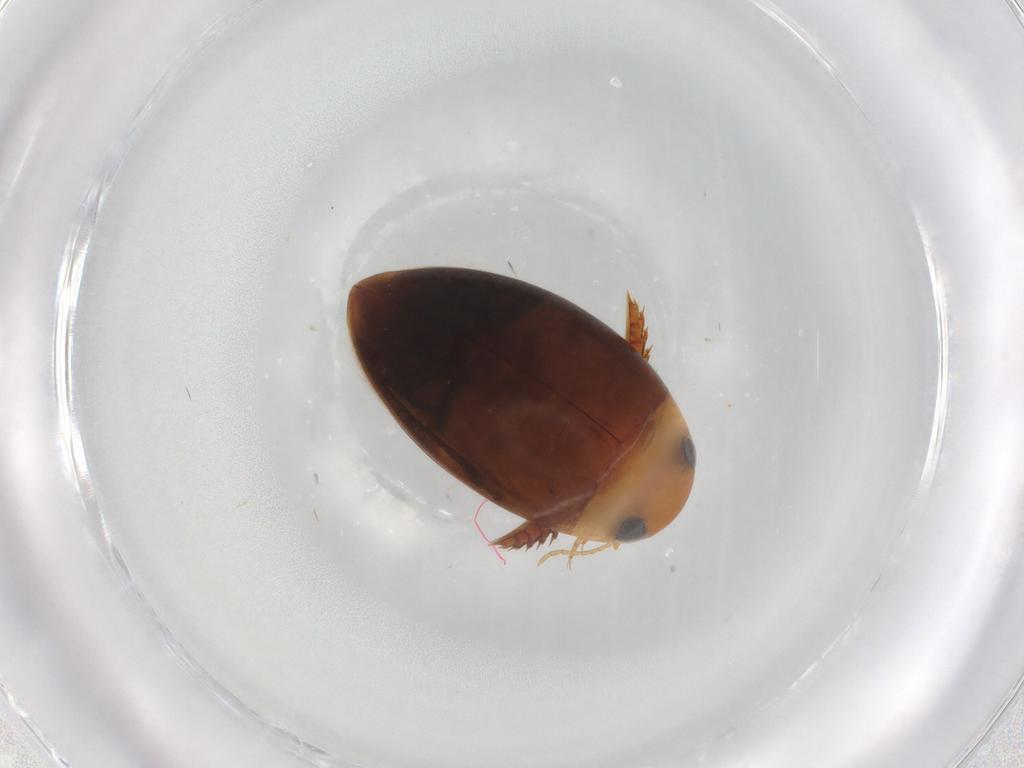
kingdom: Animalia
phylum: Arthropoda
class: Insecta
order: Coleoptera
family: Dytiscidae
